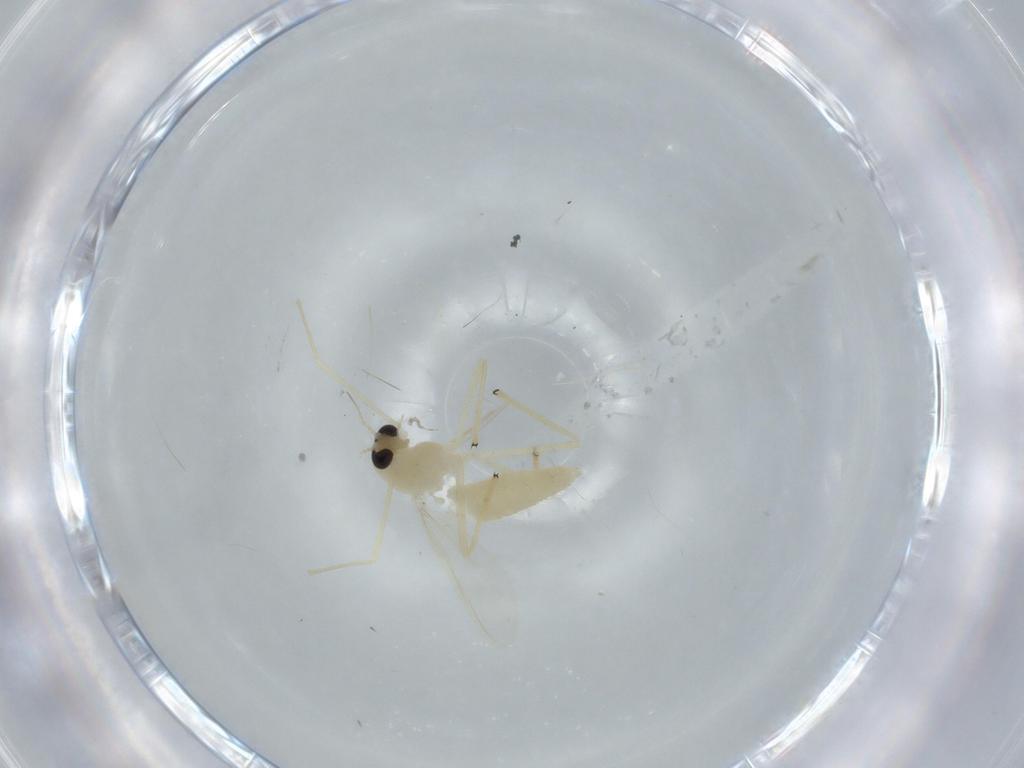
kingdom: Animalia
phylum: Arthropoda
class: Insecta
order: Diptera
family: Chironomidae
